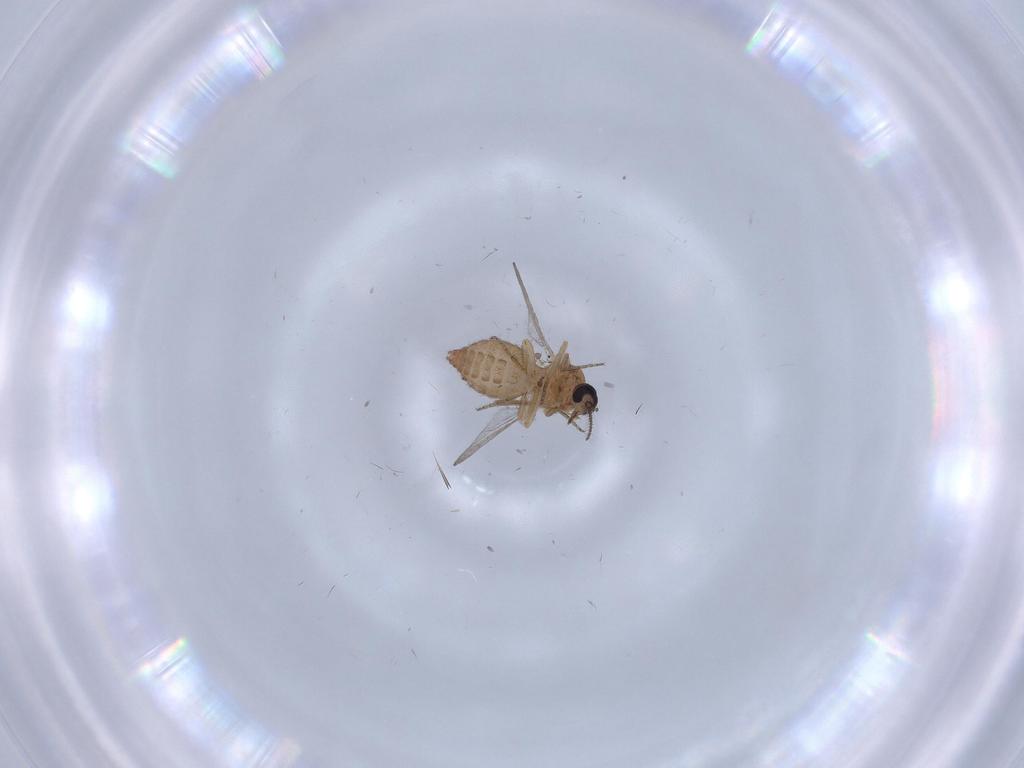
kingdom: Animalia
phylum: Arthropoda
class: Insecta
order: Diptera
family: Ceratopogonidae
